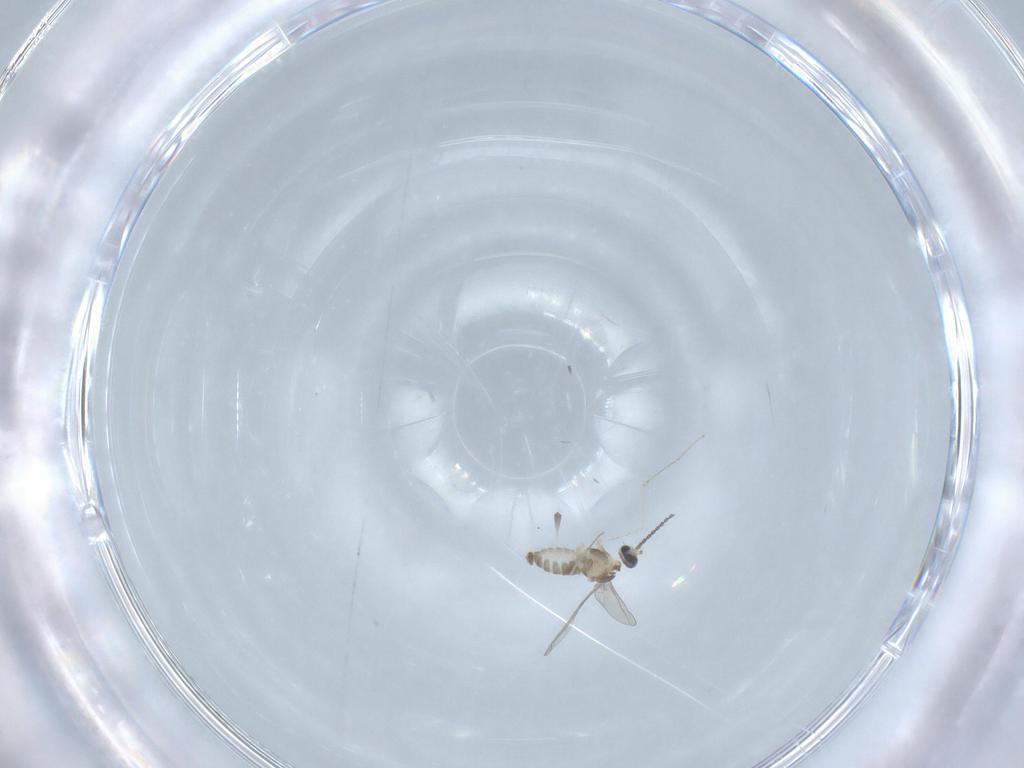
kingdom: Animalia
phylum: Arthropoda
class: Insecta
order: Diptera
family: Cecidomyiidae
